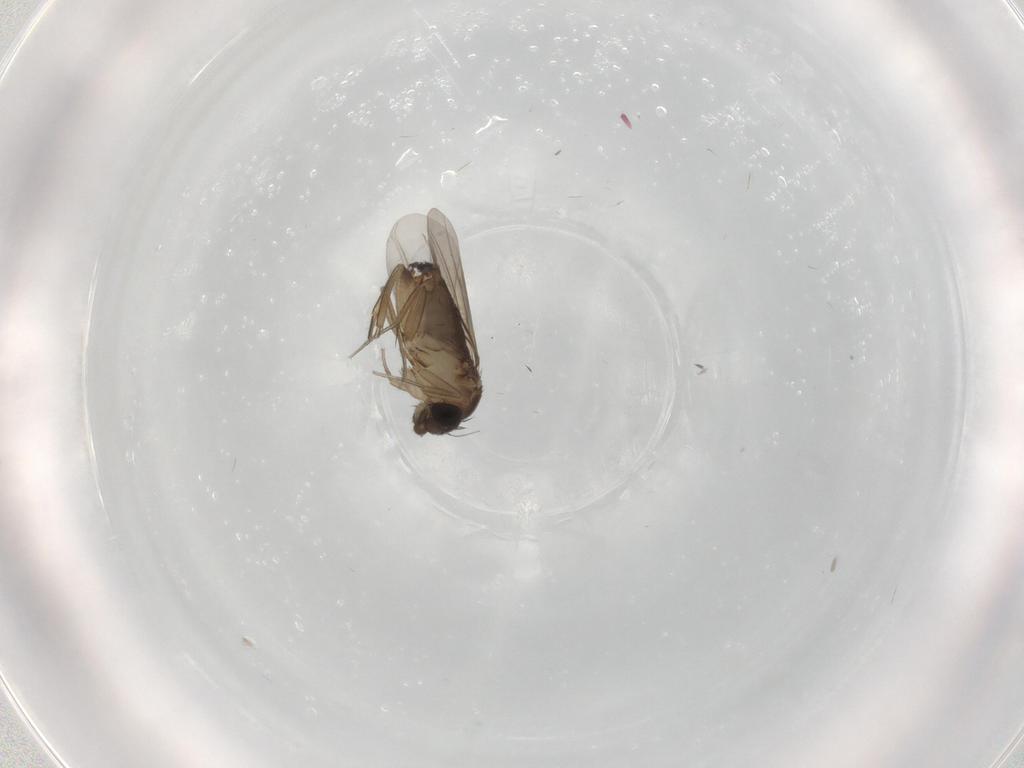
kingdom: Animalia
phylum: Arthropoda
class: Insecta
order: Diptera
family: Phoridae
